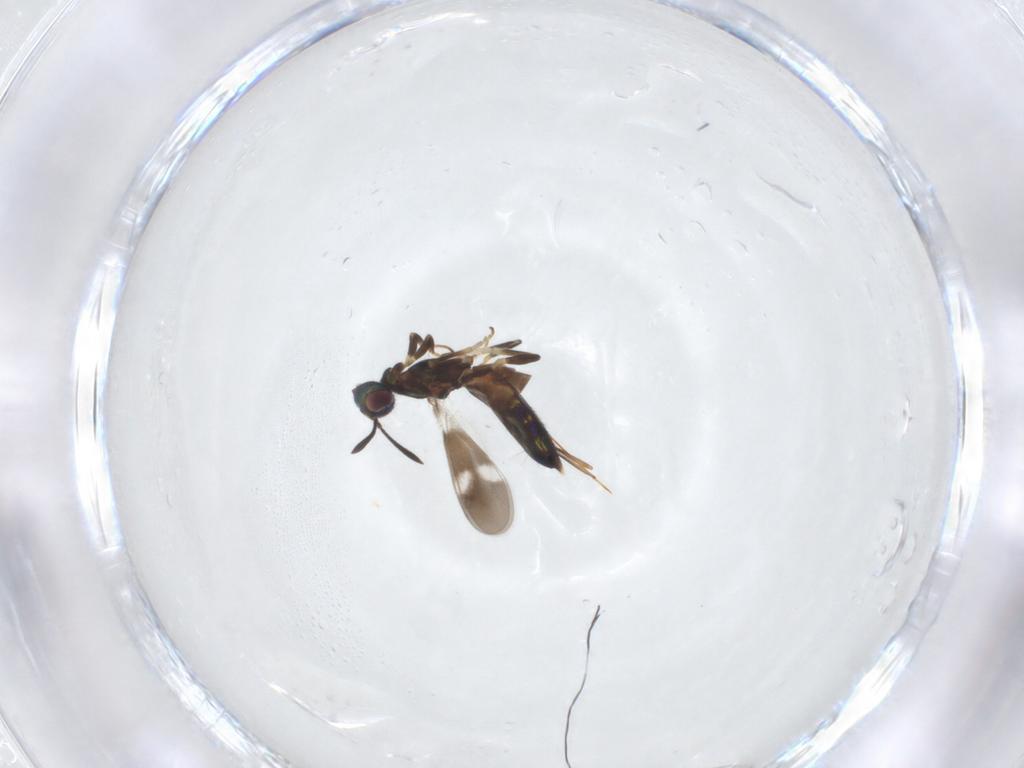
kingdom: Animalia
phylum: Arthropoda
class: Insecta
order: Hymenoptera
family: Eupelmidae
